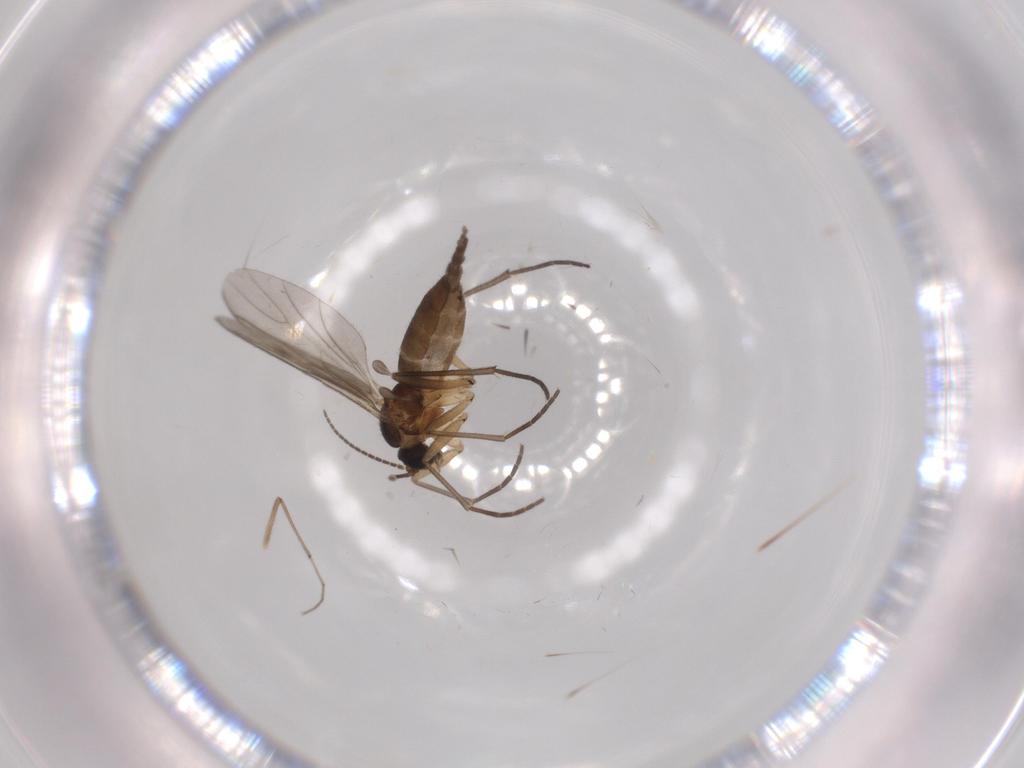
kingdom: Animalia
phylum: Arthropoda
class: Insecta
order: Diptera
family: Sciaridae
